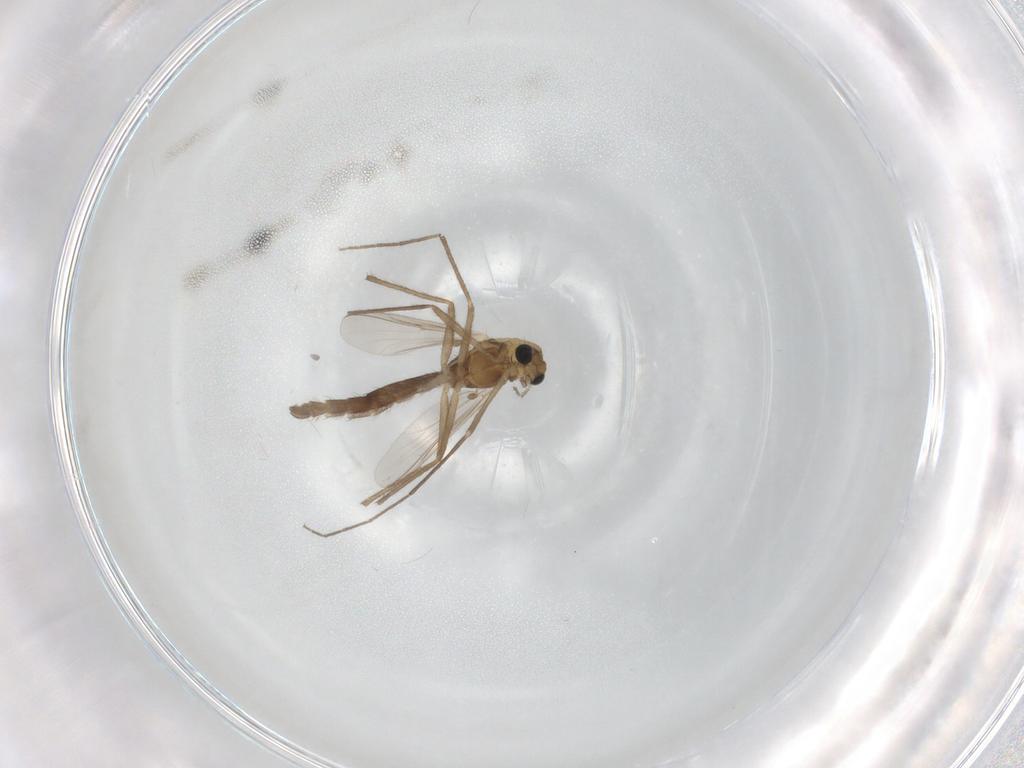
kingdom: Animalia
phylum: Arthropoda
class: Insecta
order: Diptera
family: Chironomidae
